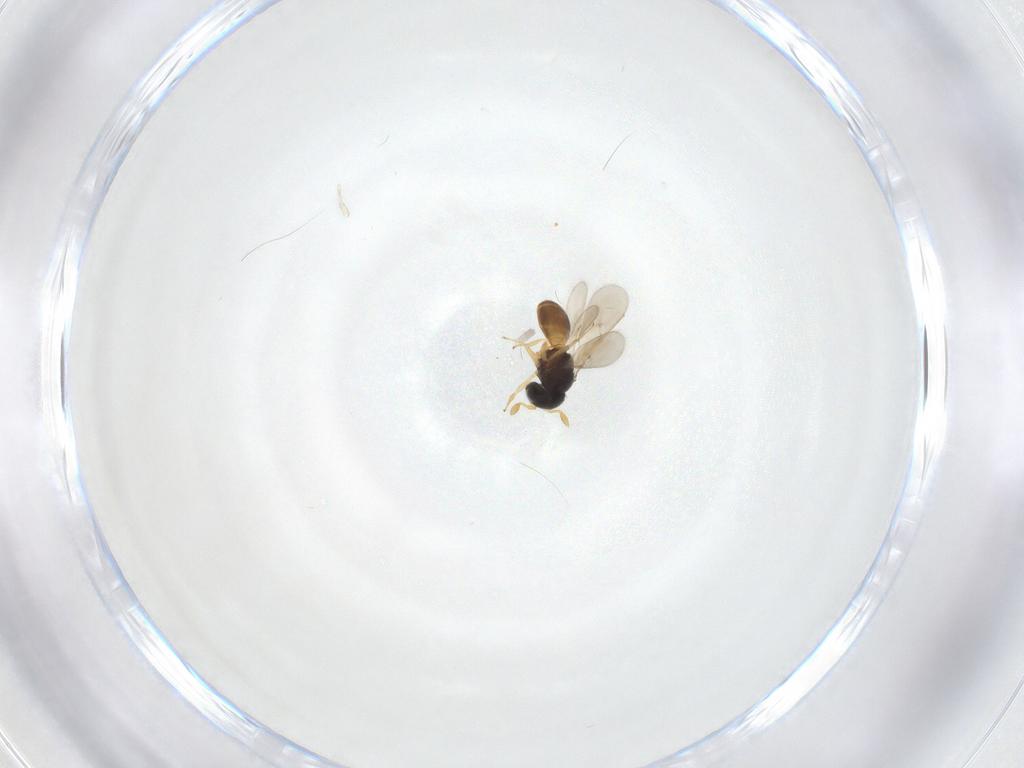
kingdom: Animalia
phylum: Arthropoda
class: Insecta
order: Hymenoptera
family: Scelionidae
